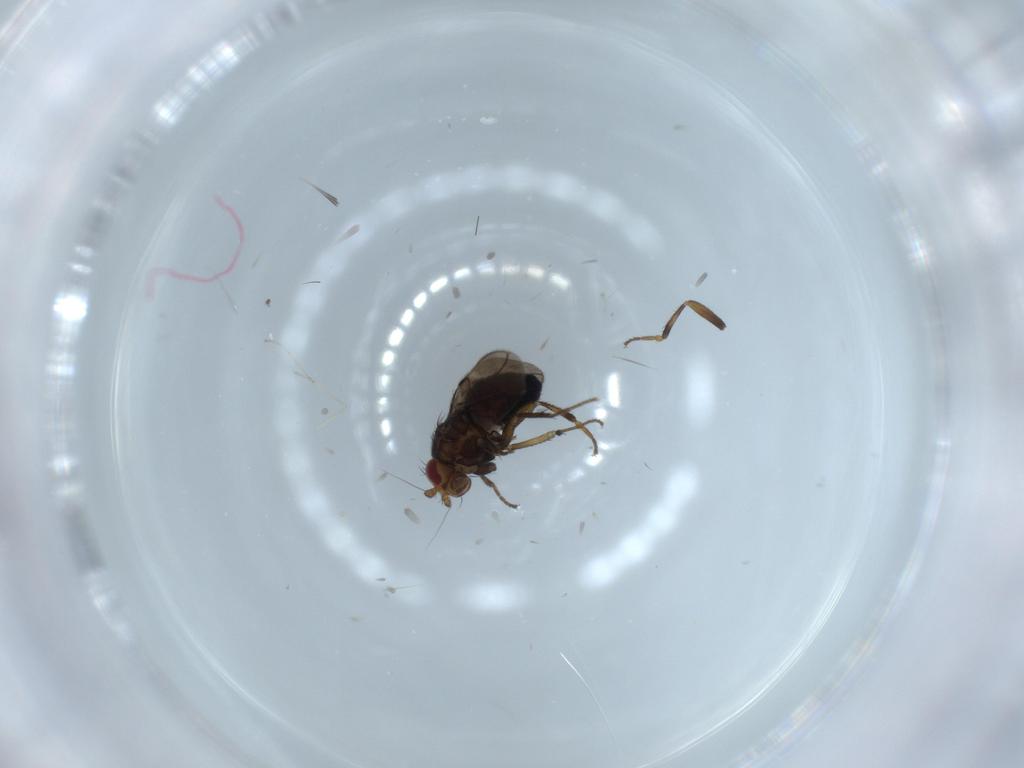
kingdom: Animalia
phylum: Arthropoda
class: Insecta
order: Diptera
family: Sphaeroceridae
